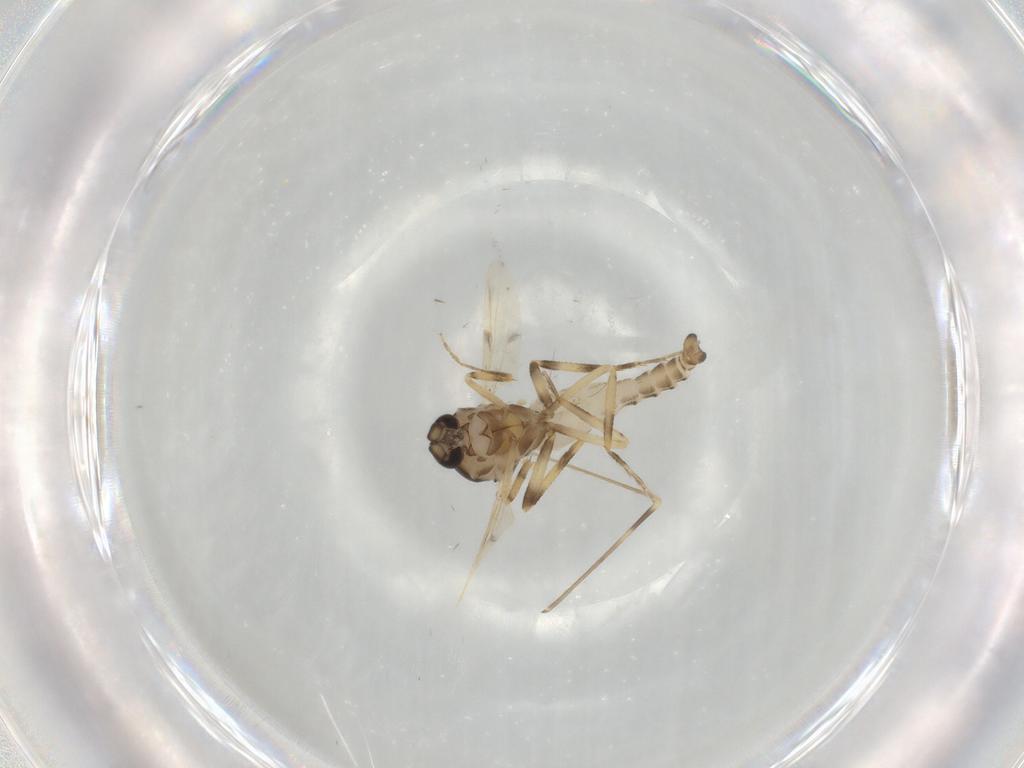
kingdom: Animalia
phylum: Arthropoda
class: Insecta
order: Diptera
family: Ceratopogonidae
